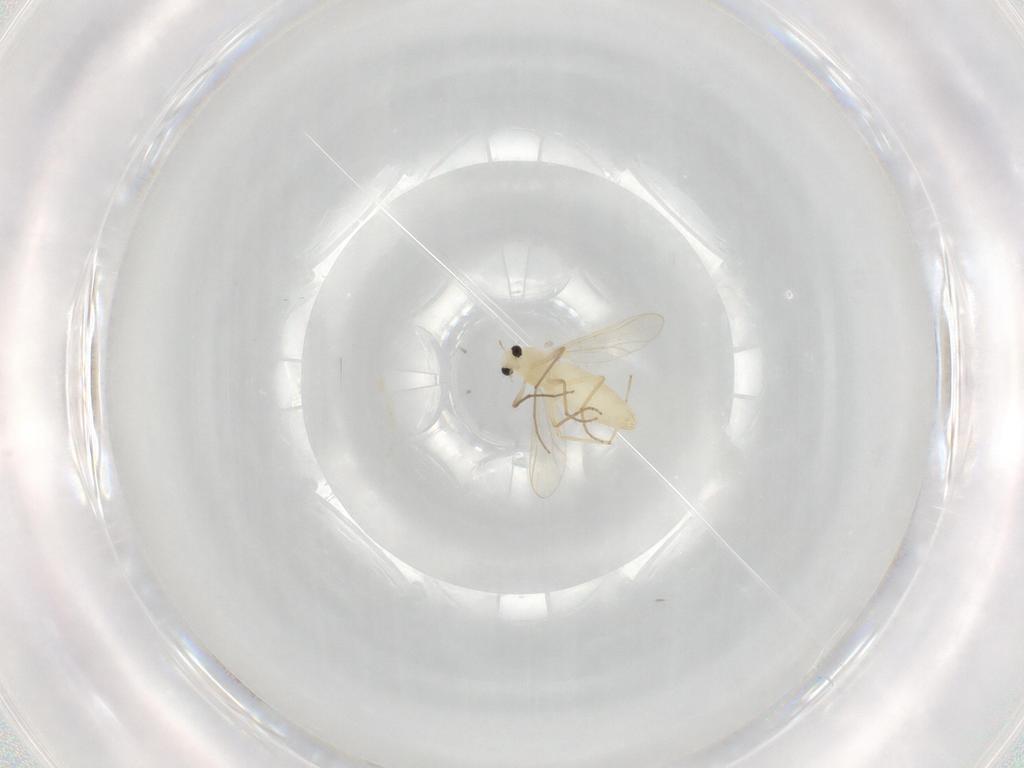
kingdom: Animalia
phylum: Arthropoda
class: Insecta
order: Diptera
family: Chironomidae
